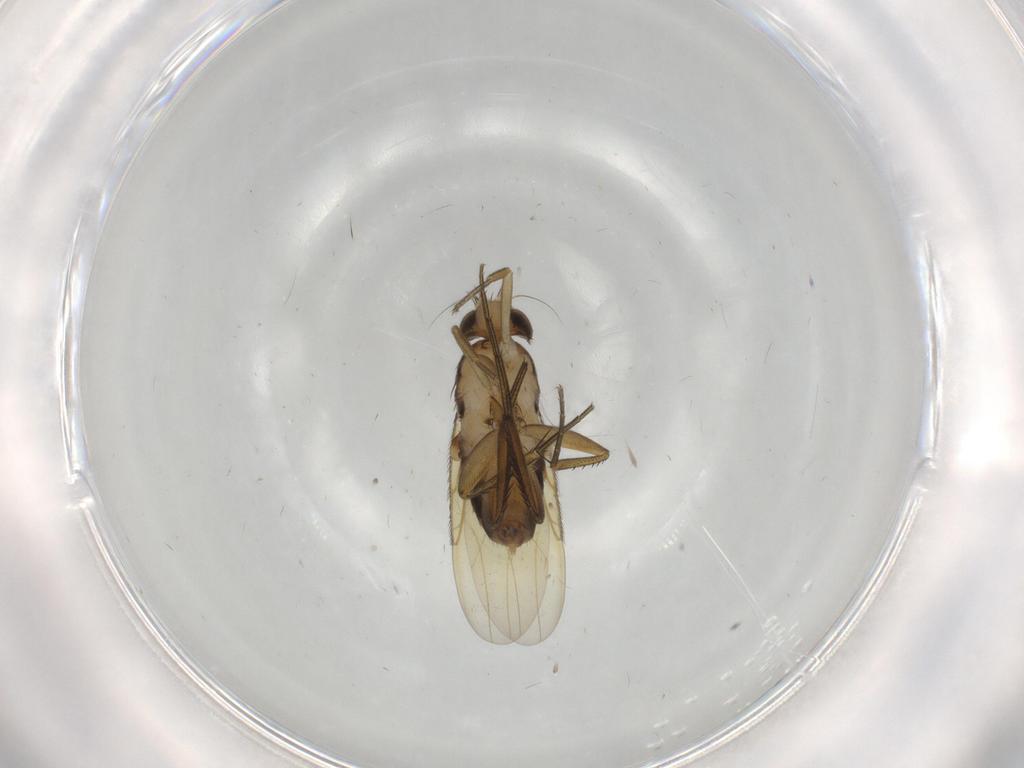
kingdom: Animalia
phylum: Arthropoda
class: Insecta
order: Diptera
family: Phoridae
